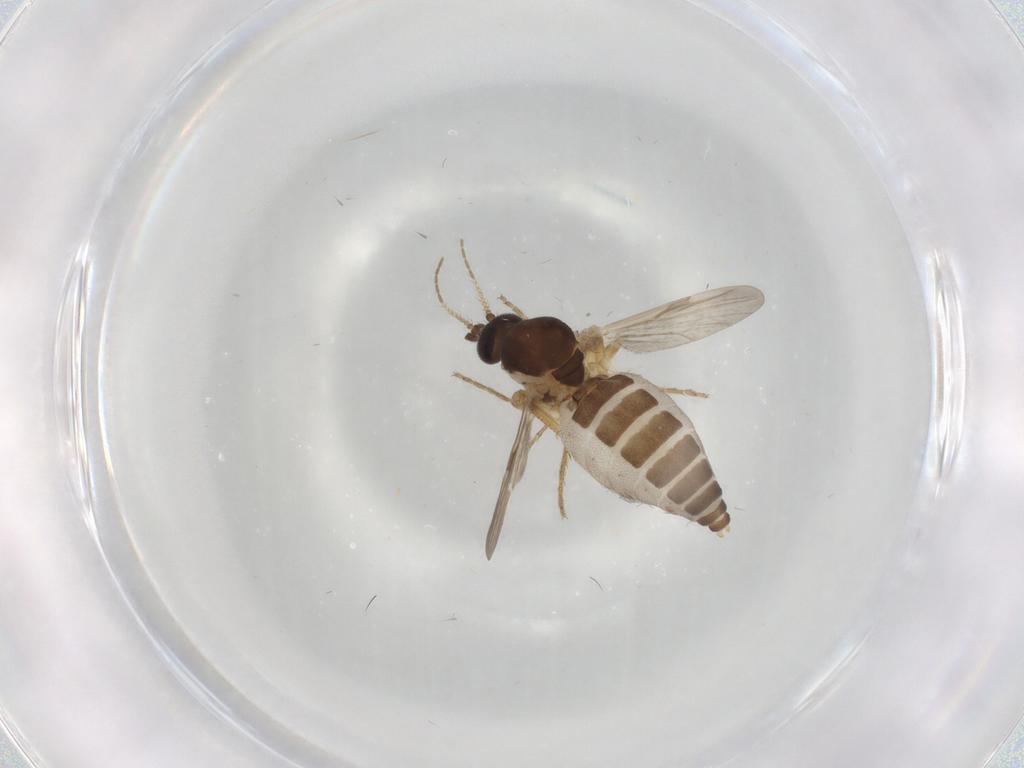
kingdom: Animalia
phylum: Arthropoda
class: Insecta
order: Diptera
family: Ceratopogonidae
